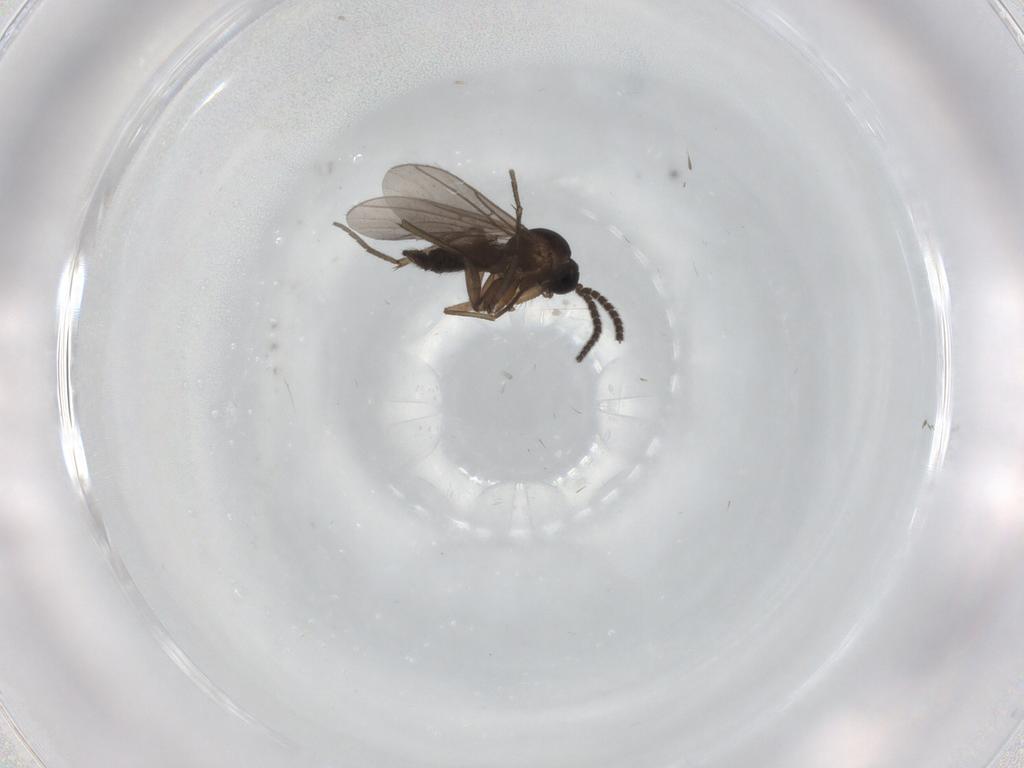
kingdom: Animalia
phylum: Arthropoda
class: Insecta
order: Diptera
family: Sciaridae
